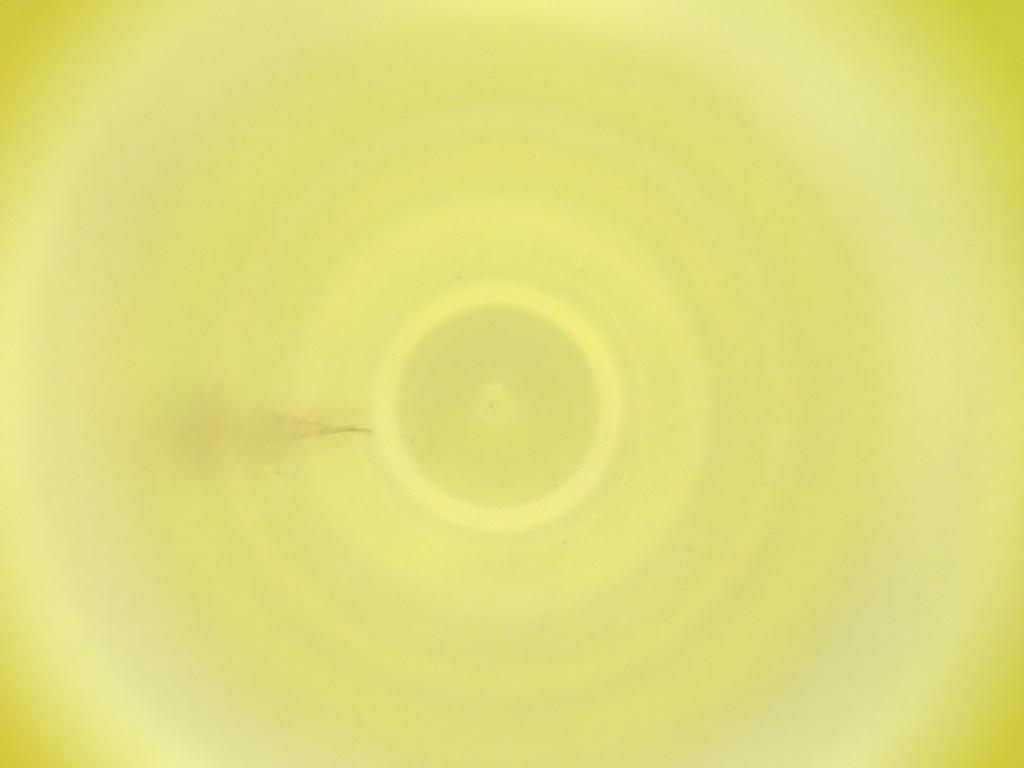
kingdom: Animalia
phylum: Arthropoda
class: Insecta
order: Diptera
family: Cecidomyiidae
